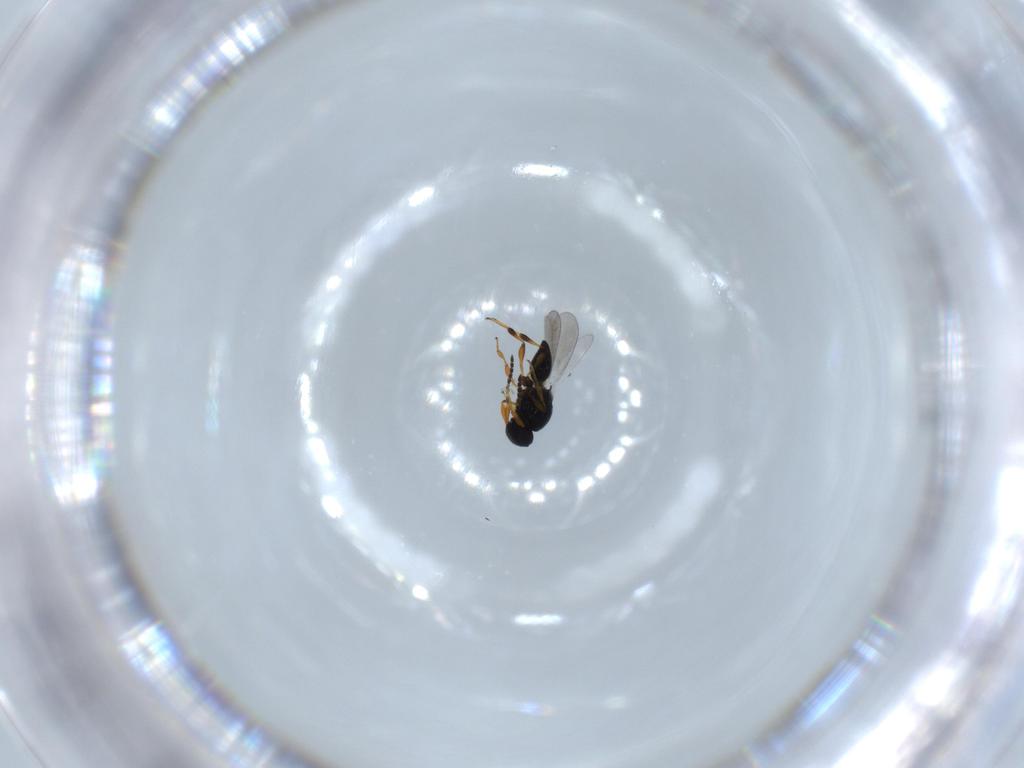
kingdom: Animalia
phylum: Arthropoda
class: Insecta
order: Hymenoptera
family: Platygastridae
